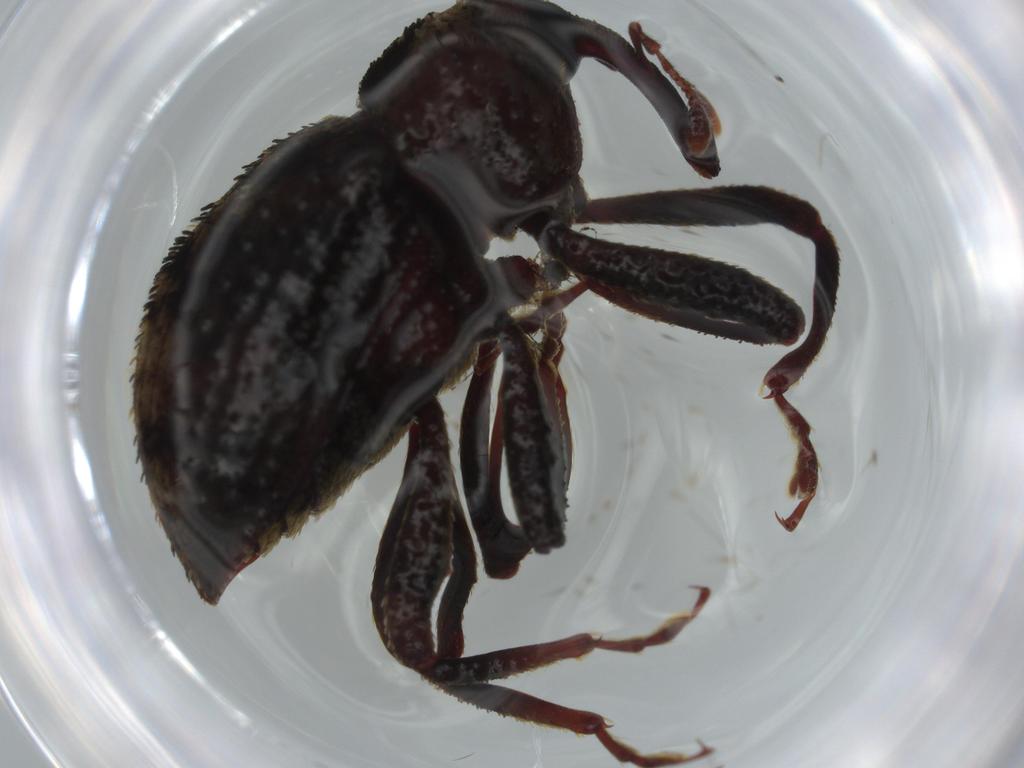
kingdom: Animalia
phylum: Arthropoda
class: Insecta
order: Coleoptera
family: Curculionidae
